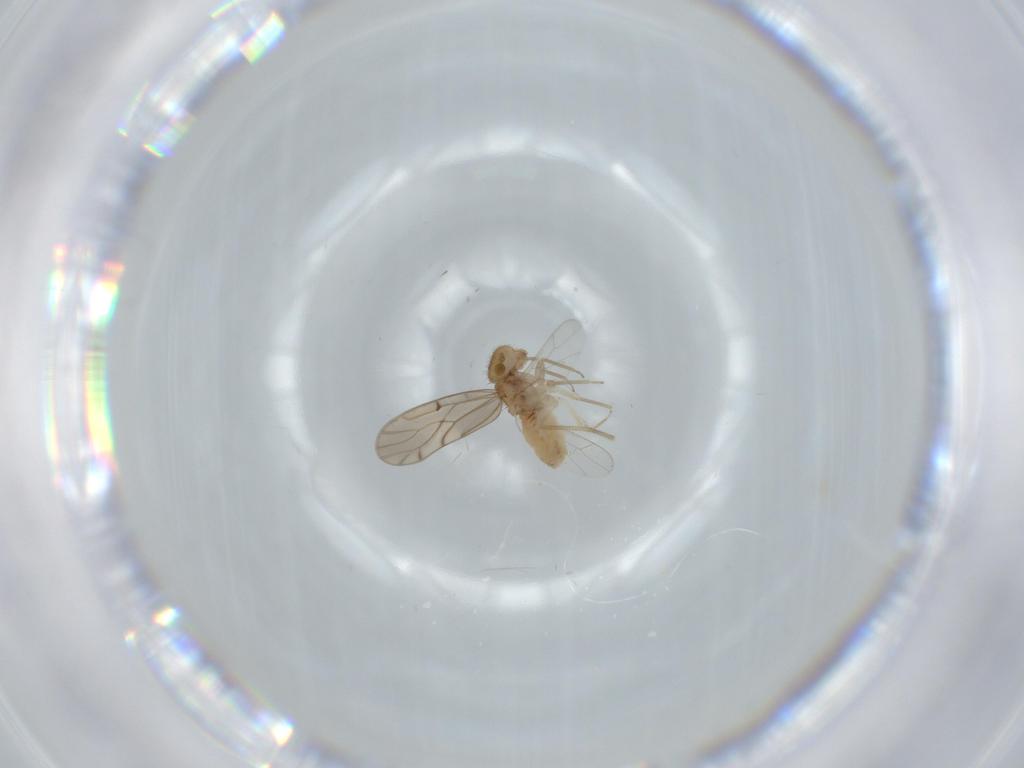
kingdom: Animalia
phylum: Arthropoda
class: Insecta
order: Psocodea
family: Ectopsocidae
